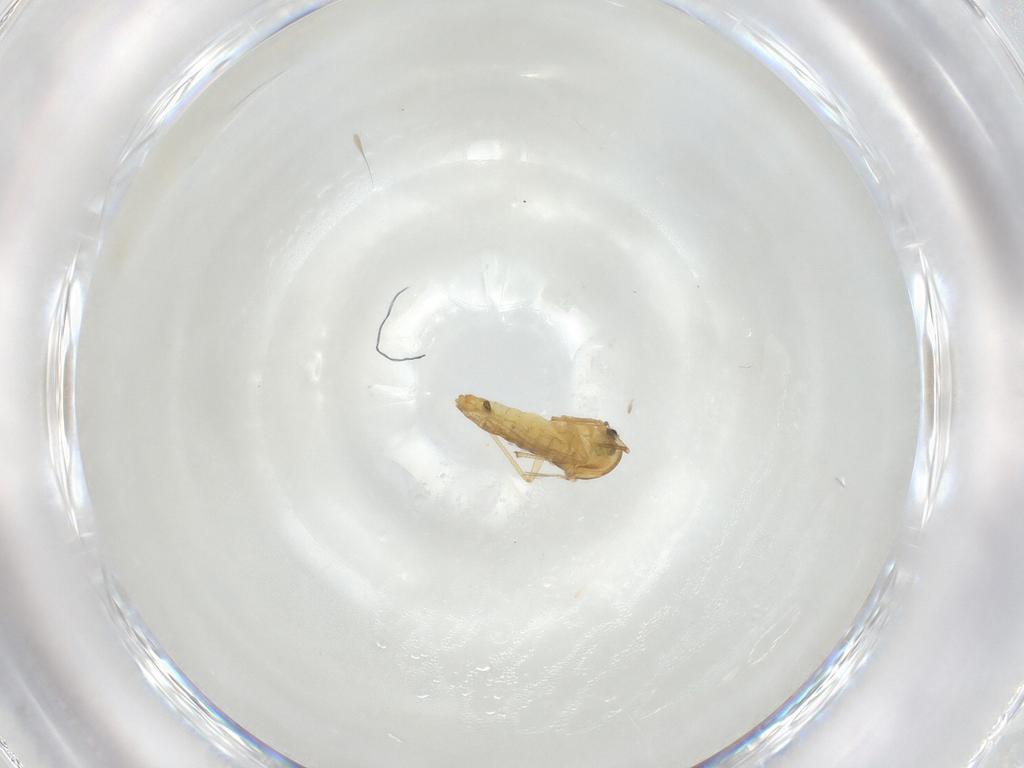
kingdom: Animalia
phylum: Arthropoda
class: Insecta
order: Diptera
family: Chironomidae
